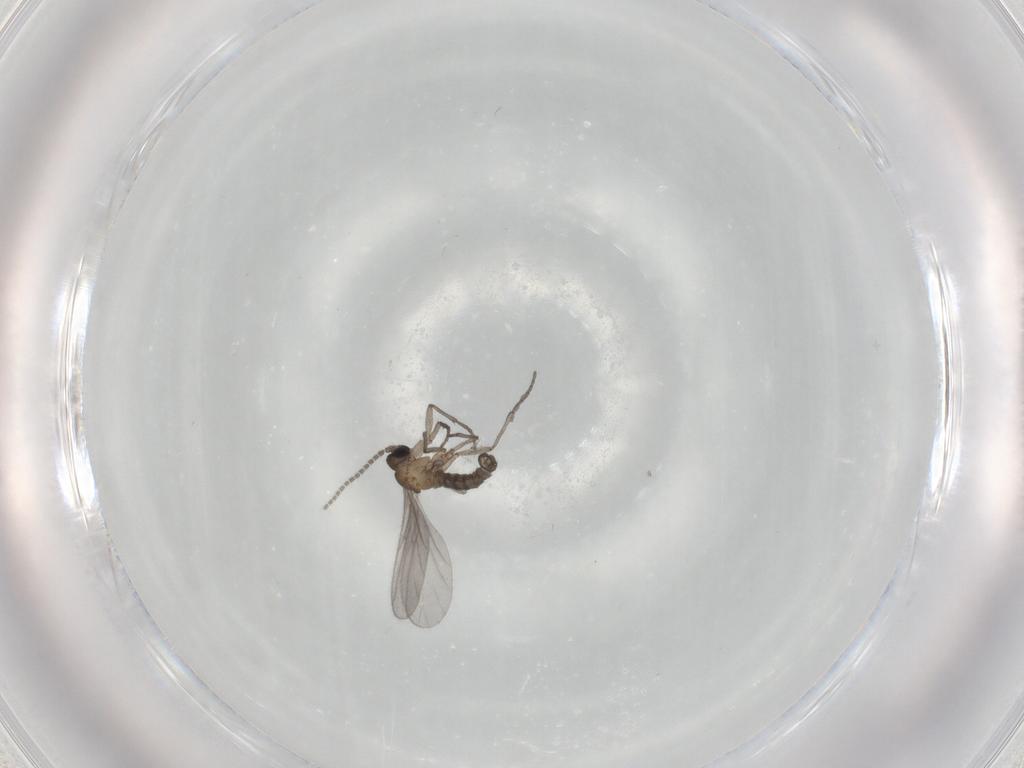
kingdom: Animalia
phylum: Arthropoda
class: Insecta
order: Diptera
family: Sciaridae
